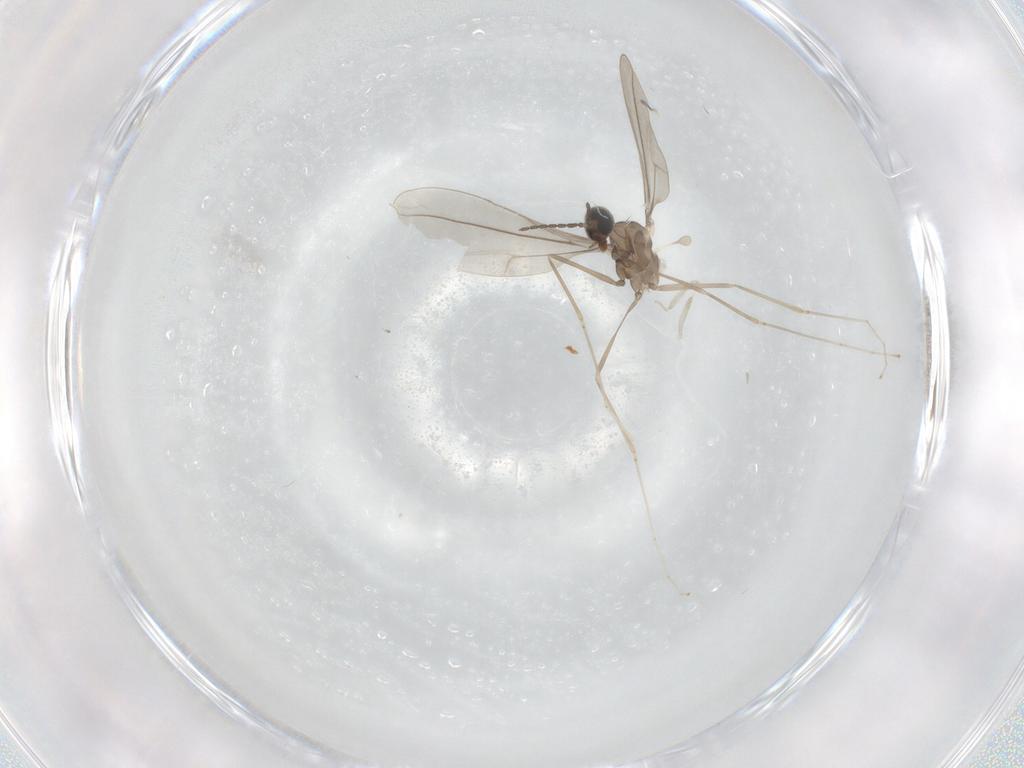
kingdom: Animalia
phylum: Arthropoda
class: Insecta
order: Diptera
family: Cecidomyiidae
